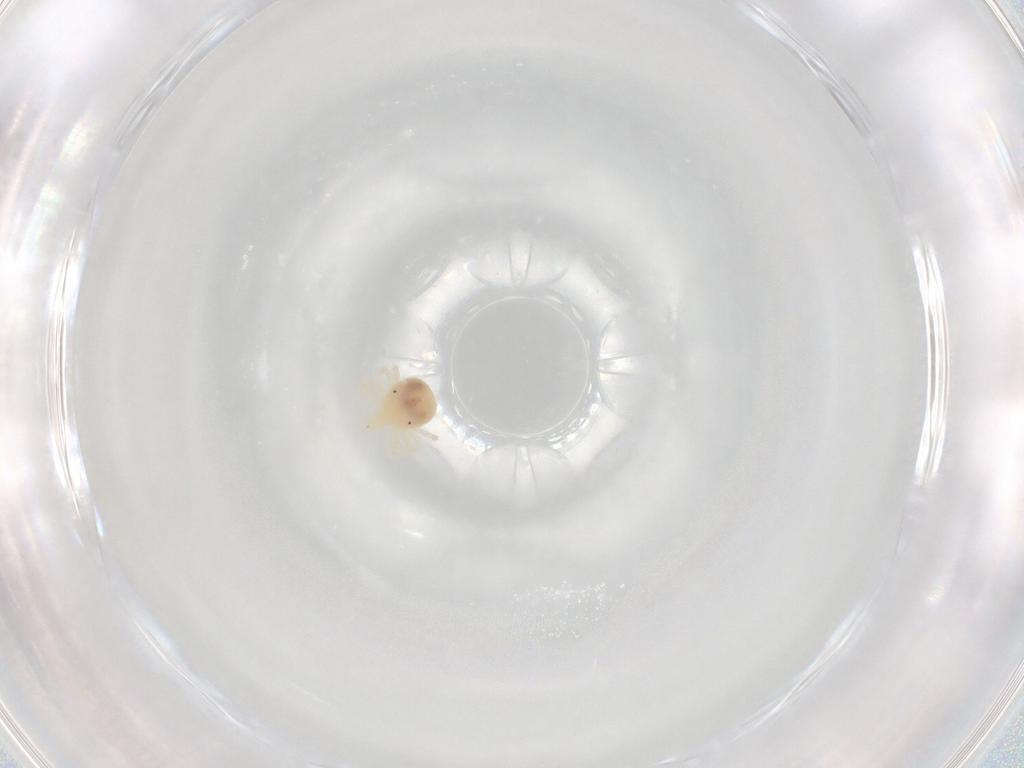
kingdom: Animalia
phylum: Arthropoda
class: Arachnida
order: Trombidiformes
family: Anystidae
